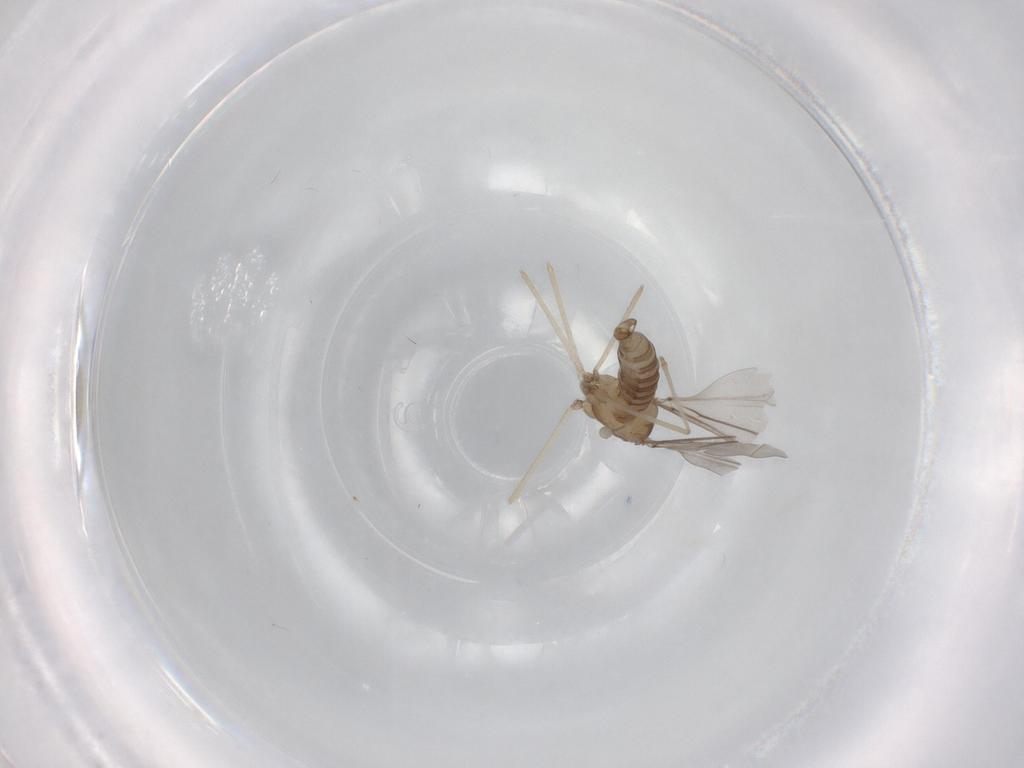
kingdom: Animalia
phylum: Arthropoda
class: Insecta
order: Diptera
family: Cecidomyiidae
